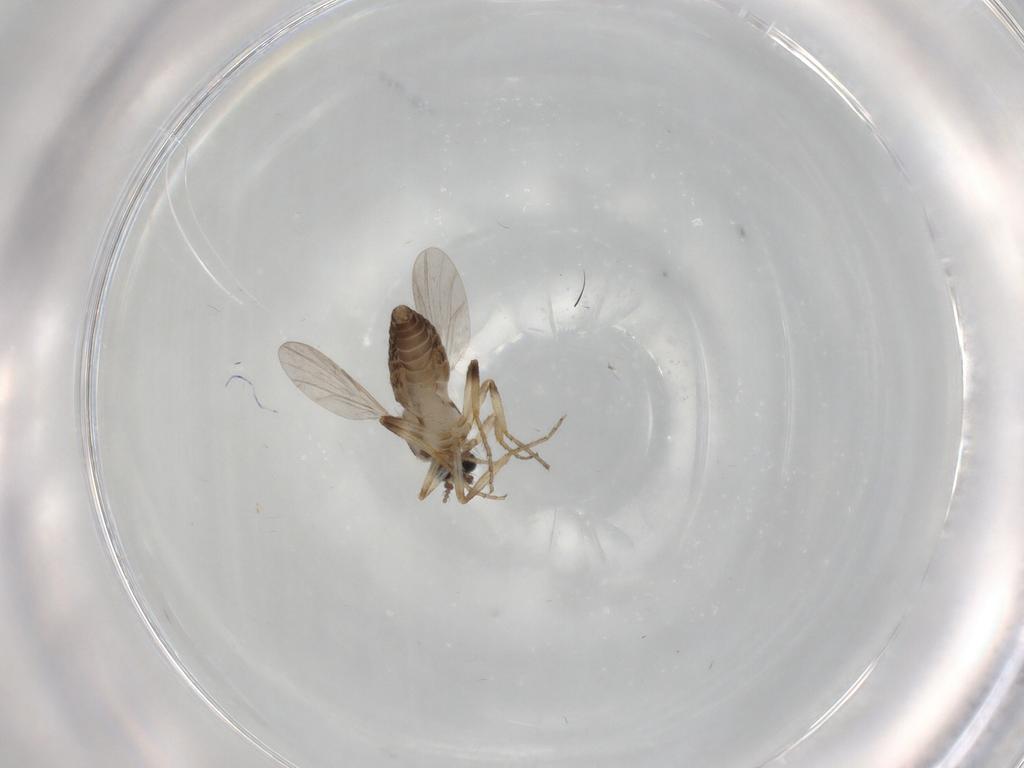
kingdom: Animalia
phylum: Arthropoda
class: Insecta
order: Diptera
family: Ceratopogonidae
